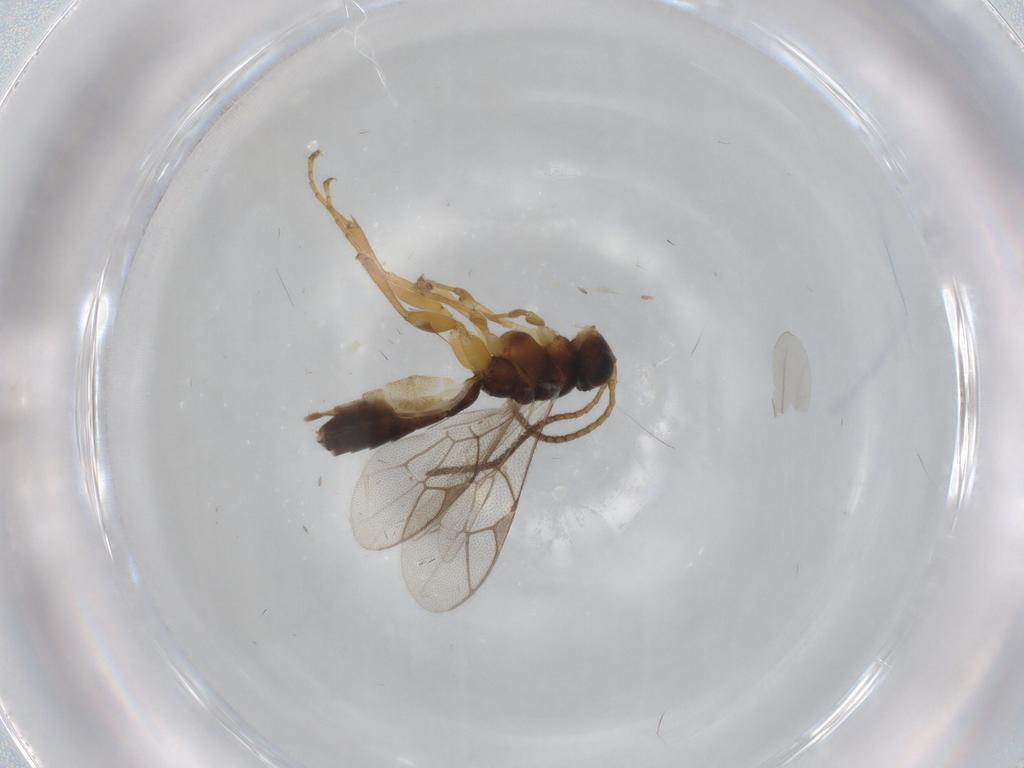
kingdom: Animalia
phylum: Arthropoda
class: Insecta
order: Hymenoptera
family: Ichneumonidae
